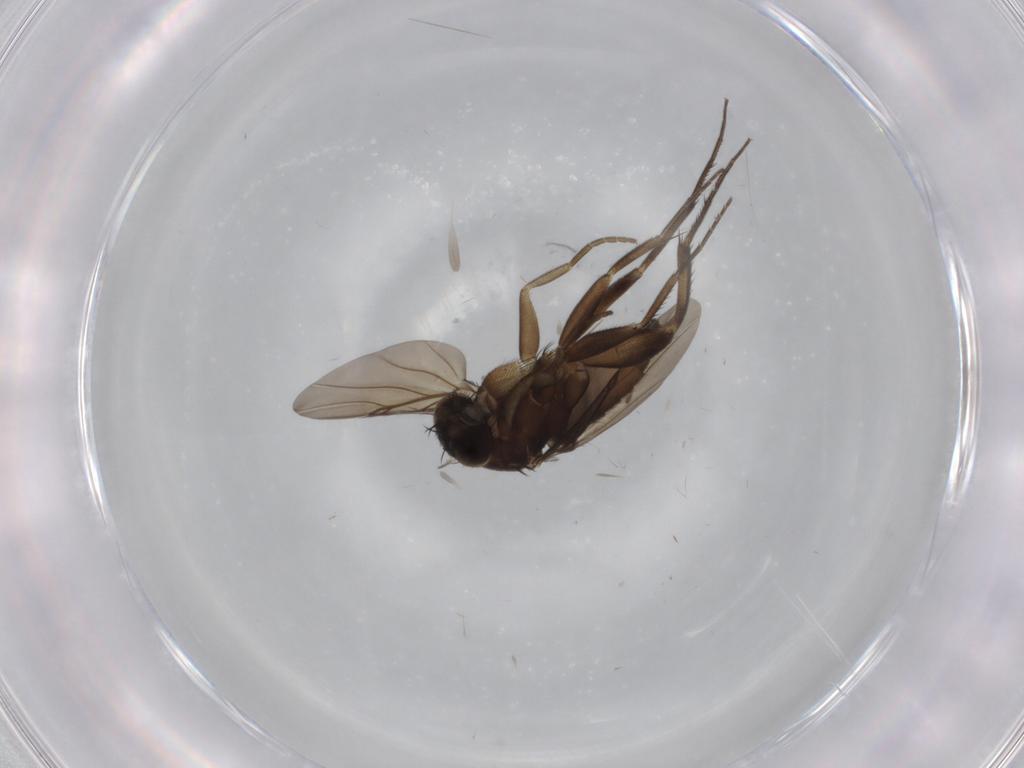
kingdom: Animalia
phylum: Arthropoda
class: Insecta
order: Diptera
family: Phoridae
